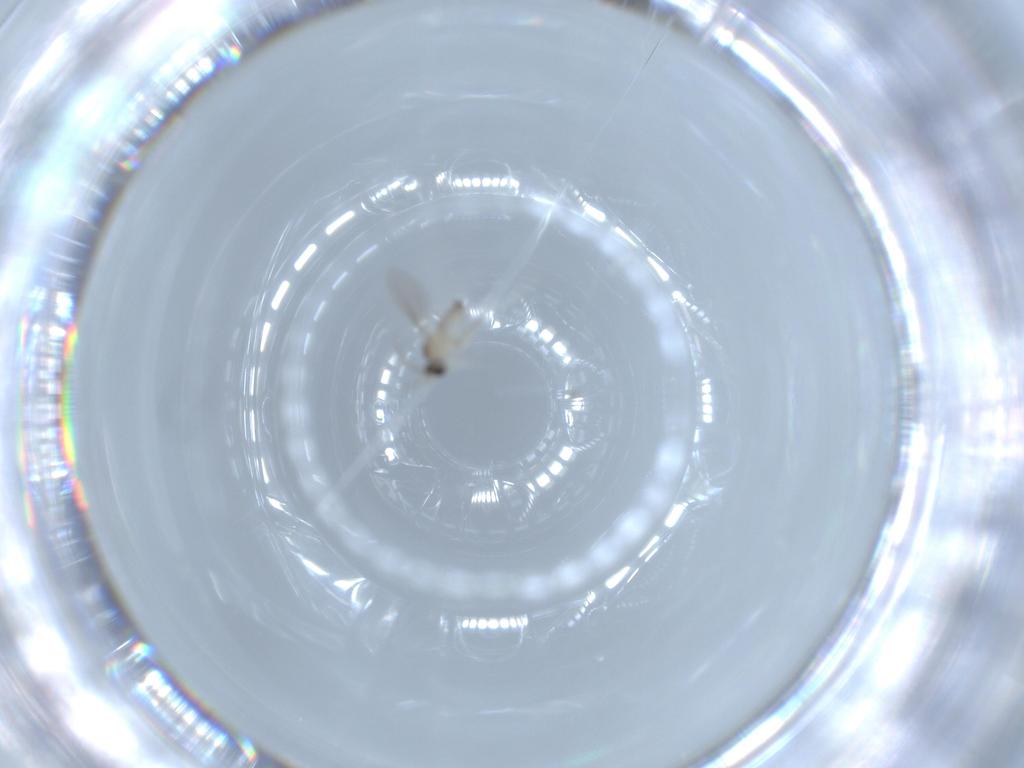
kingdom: Animalia
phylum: Arthropoda
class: Insecta
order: Diptera
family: Cecidomyiidae
